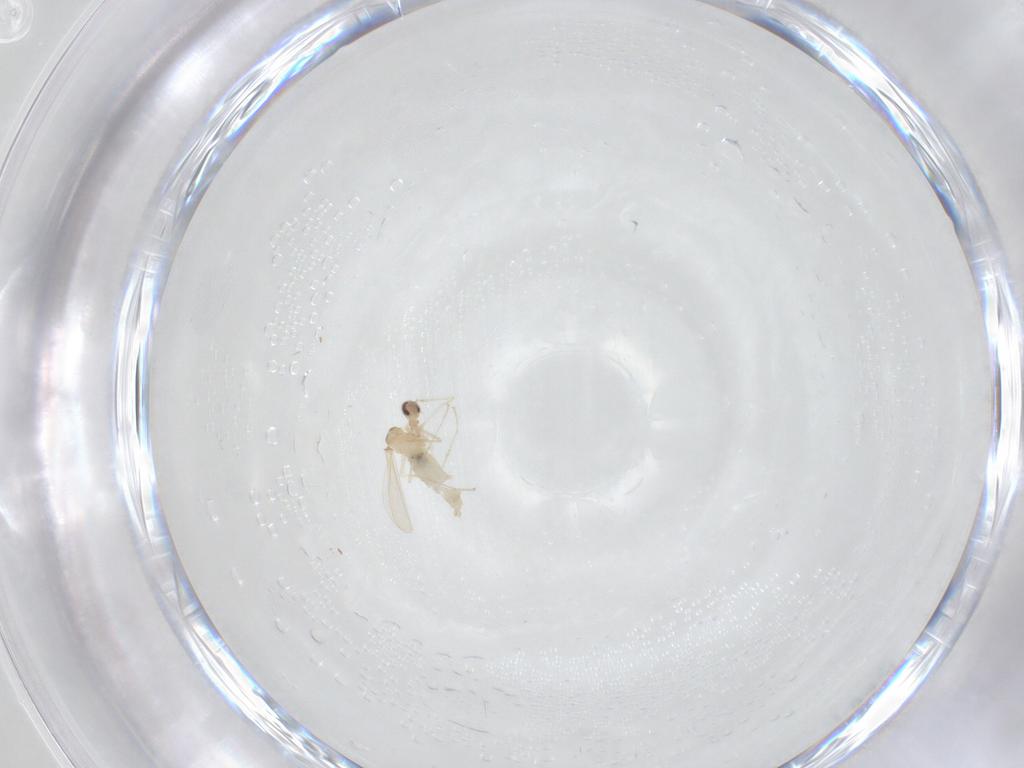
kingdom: Animalia
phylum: Arthropoda
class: Insecta
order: Diptera
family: Cecidomyiidae
